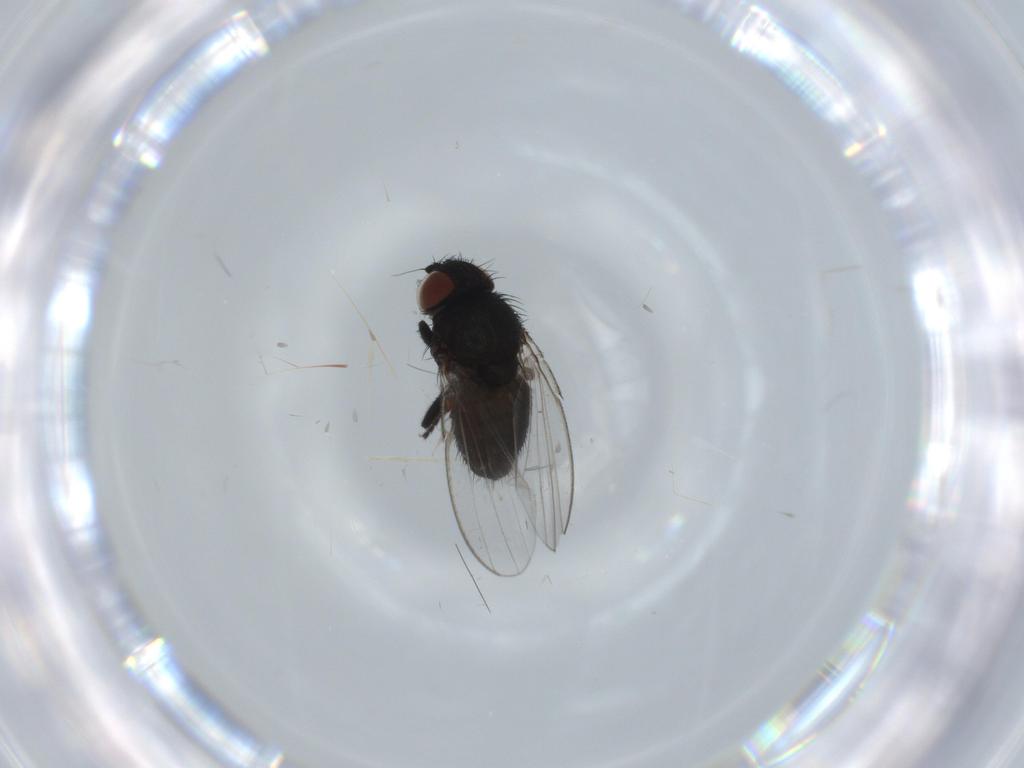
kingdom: Animalia
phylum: Arthropoda
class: Insecta
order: Diptera
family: Milichiidae
